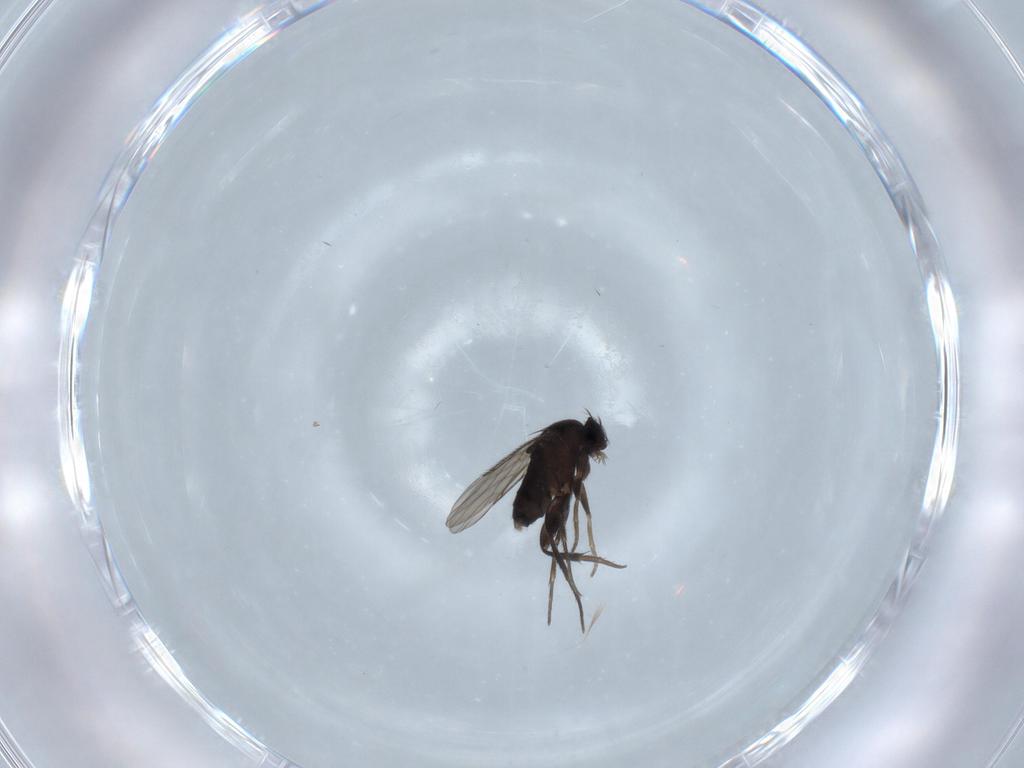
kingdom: Animalia
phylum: Arthropoda
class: Insecta
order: Diptera
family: Phoridae
